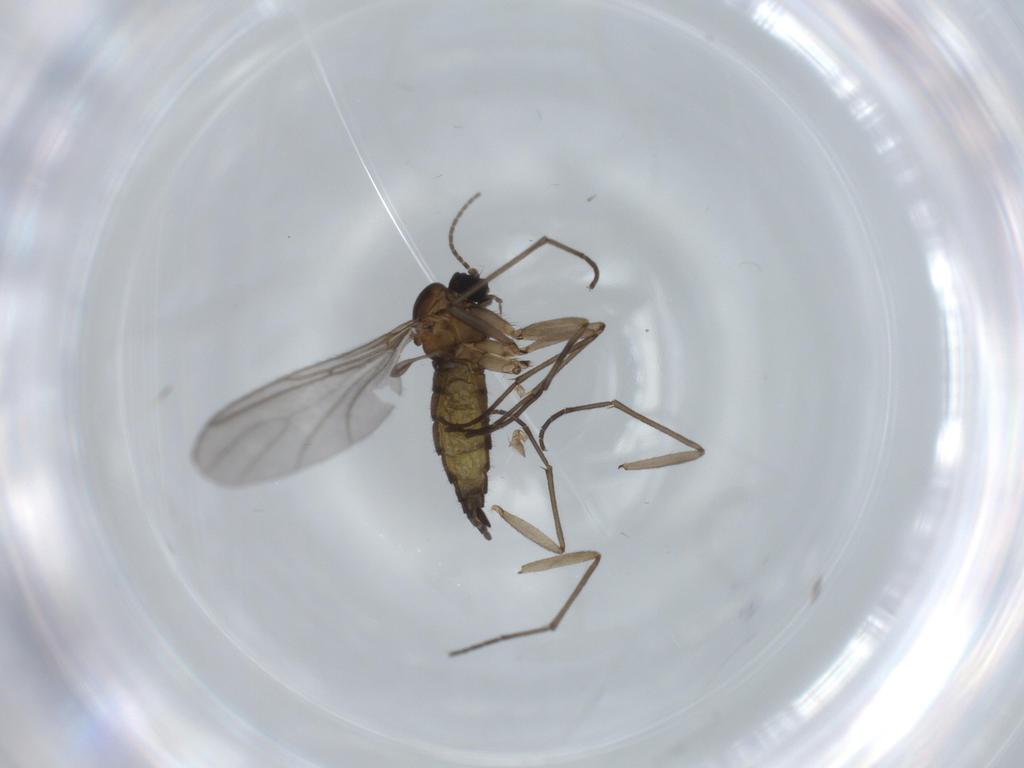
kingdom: Animalia
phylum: Arthropoda
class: Insecta
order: Diptera
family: Sciaridae
